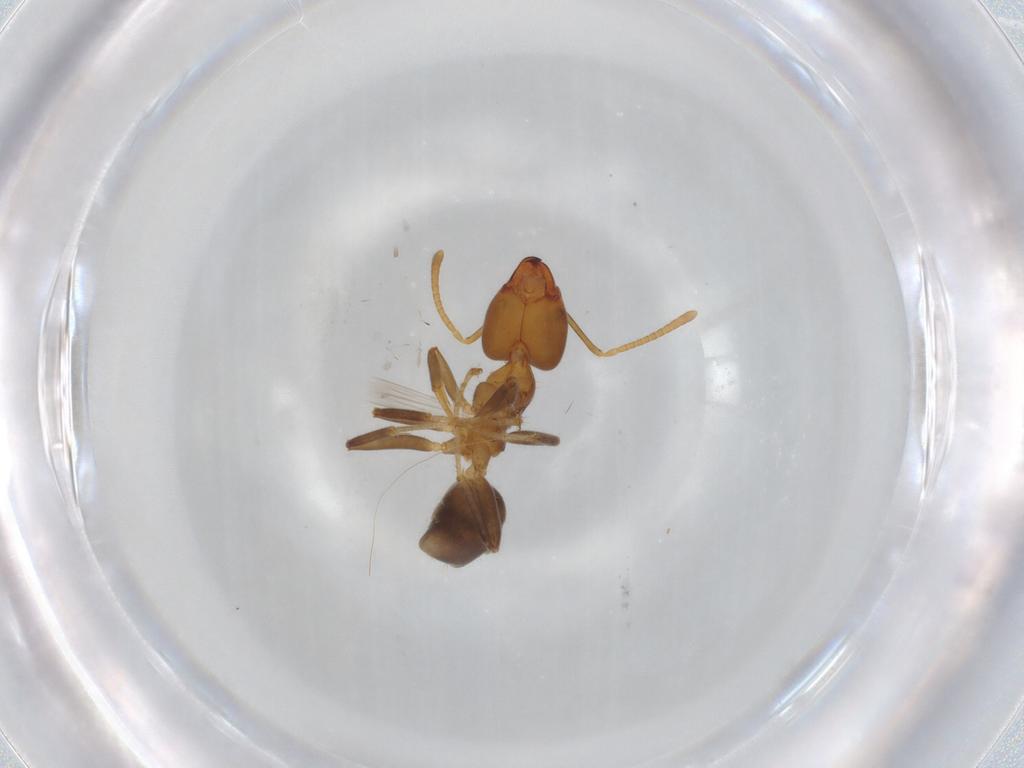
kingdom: Animalia
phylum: Arthropoda
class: Insecta
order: Hymenoptera
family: Formicidae
